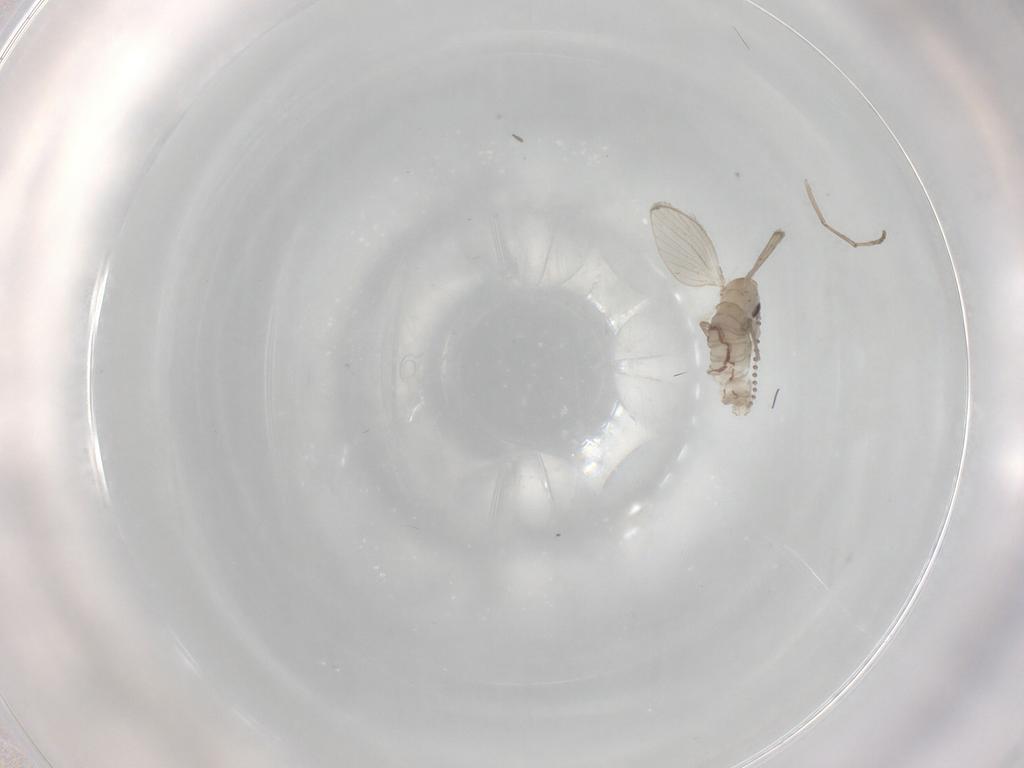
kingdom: Animalia
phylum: Arthropoda
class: Insecta
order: Diptera
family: Psychodidae
